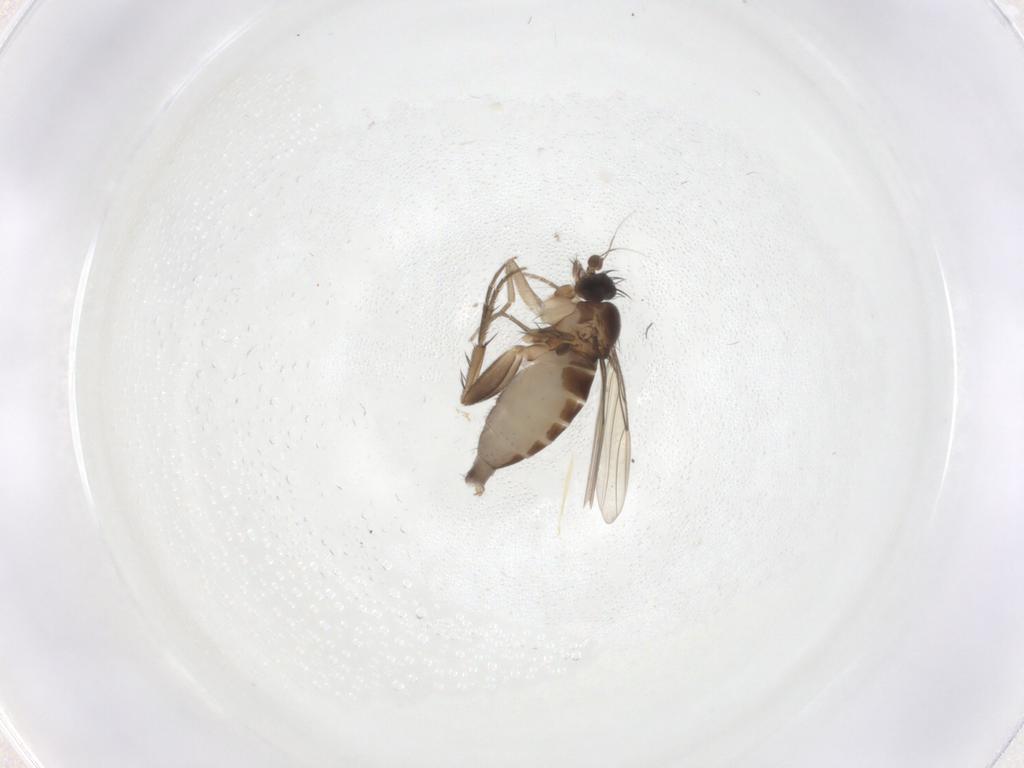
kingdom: Animalia
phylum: Arthropoda
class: Insecta
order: Diptera
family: Phoridae
